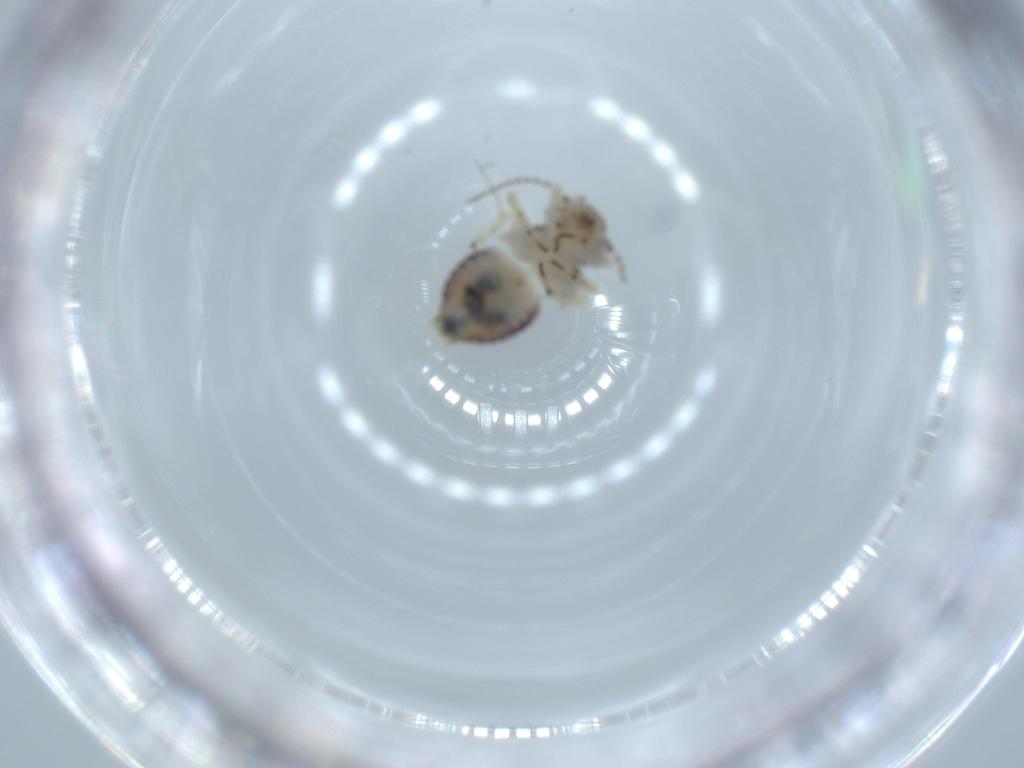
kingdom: Animalia
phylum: Arthropoda
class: Insecta
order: Psocodea
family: Psocidae
